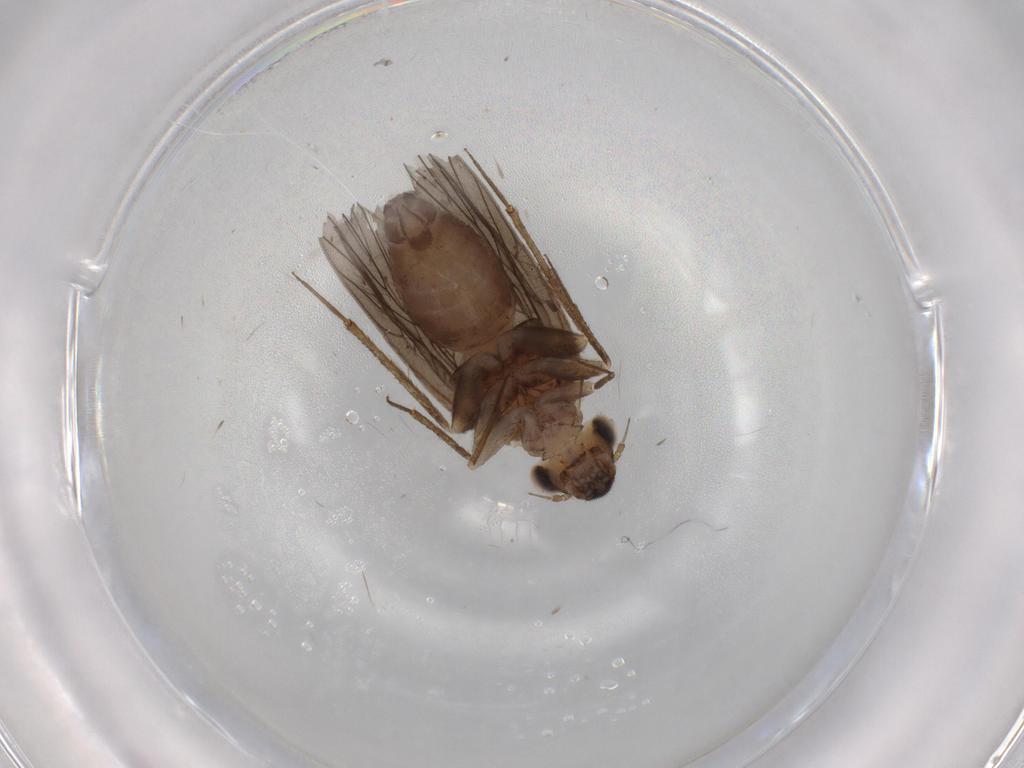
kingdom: Animalia
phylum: Arthropoda
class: Insecta
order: Psocodea
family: Lepidopsocidae
